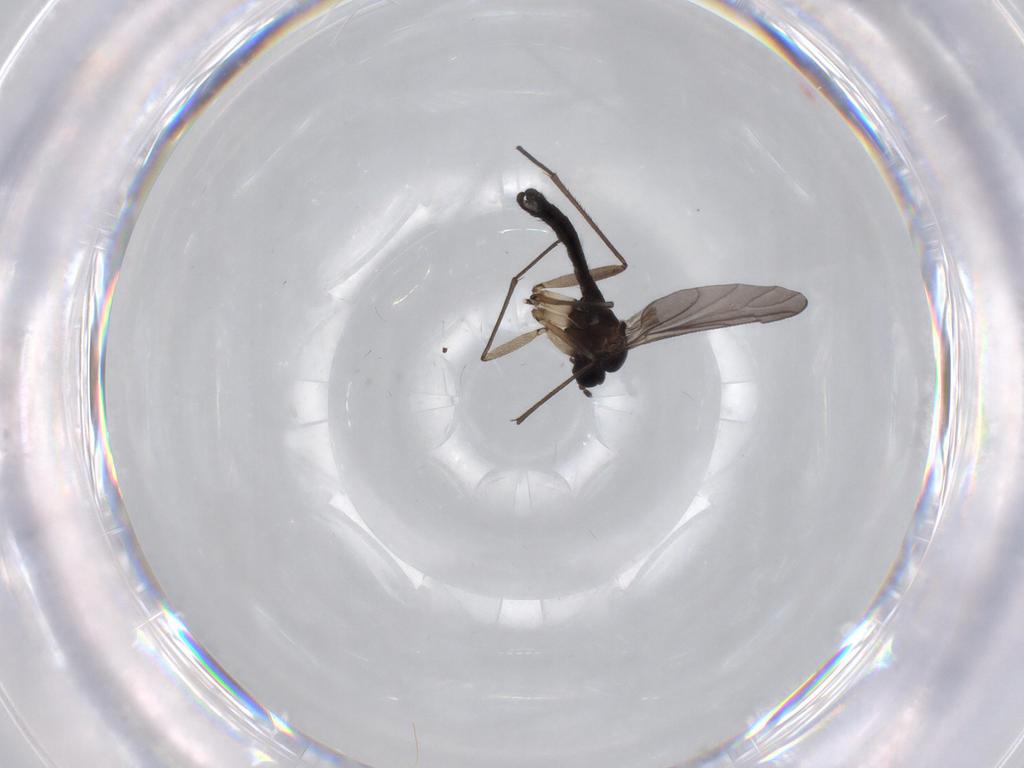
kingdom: Animalia
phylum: Arthropoda
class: Insecta
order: Diptera
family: Sciaridae
